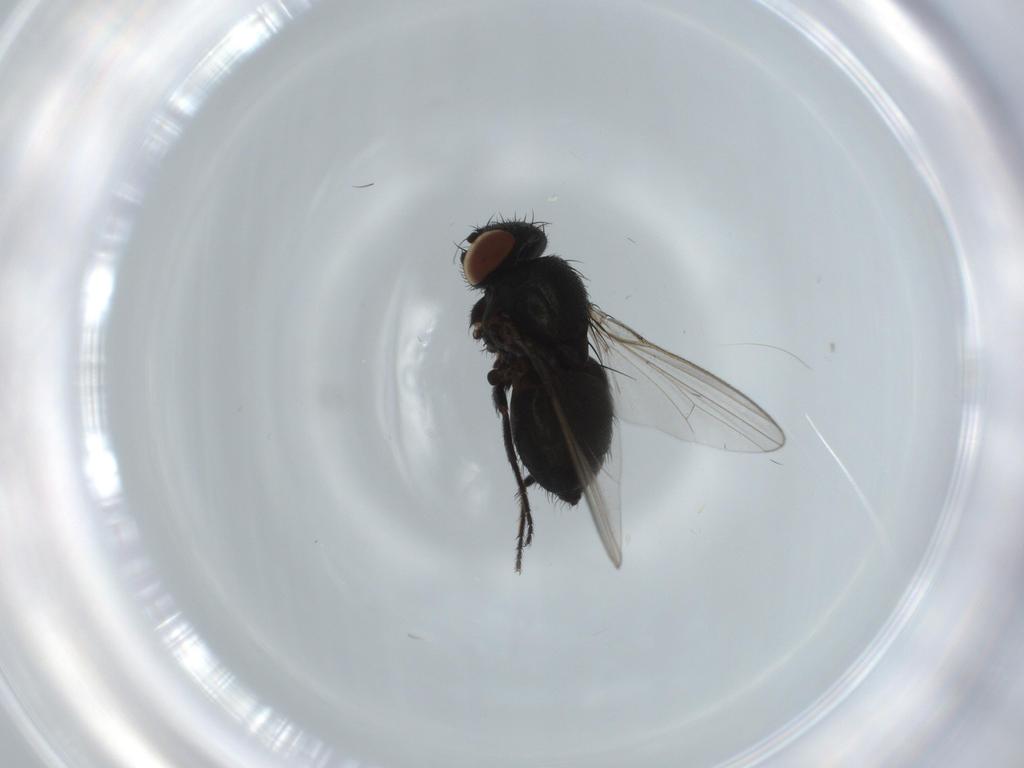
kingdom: Animalia
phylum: Arthropoda
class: Insecta
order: Diptera
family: Milichiidae
